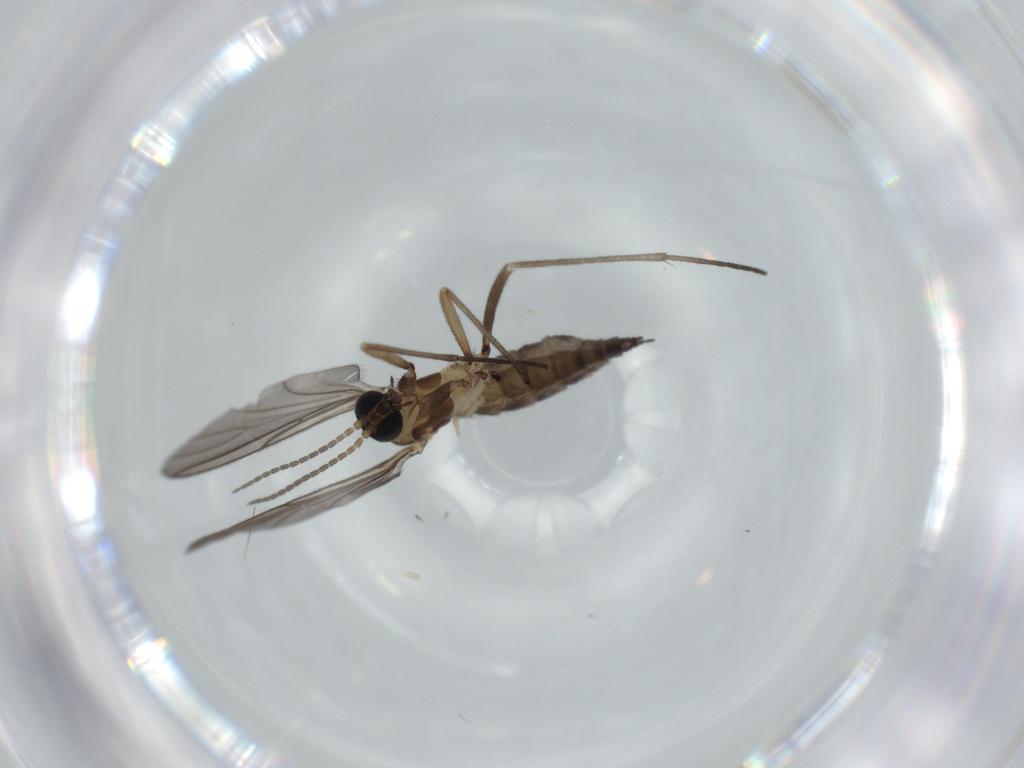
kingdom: Animalia
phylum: Arthropoda
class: Insecta
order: Diptera
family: Sciaridae
